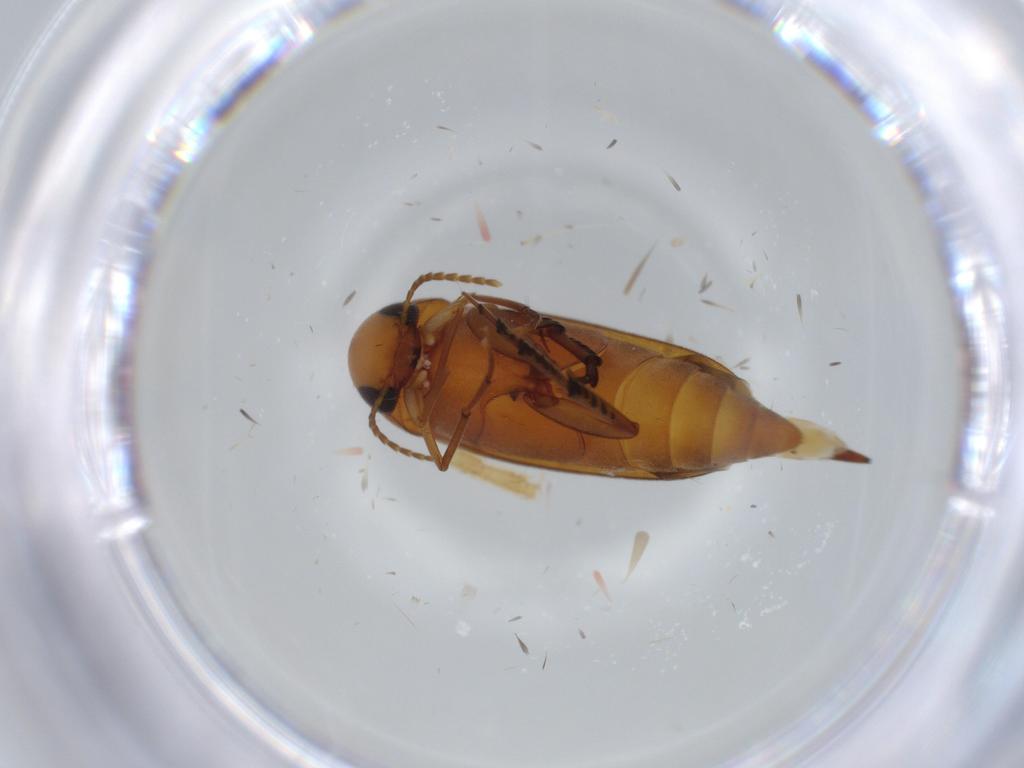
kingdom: Animalia
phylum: Arthropoda
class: Insecta
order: Coleoptera
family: Mordellidae
